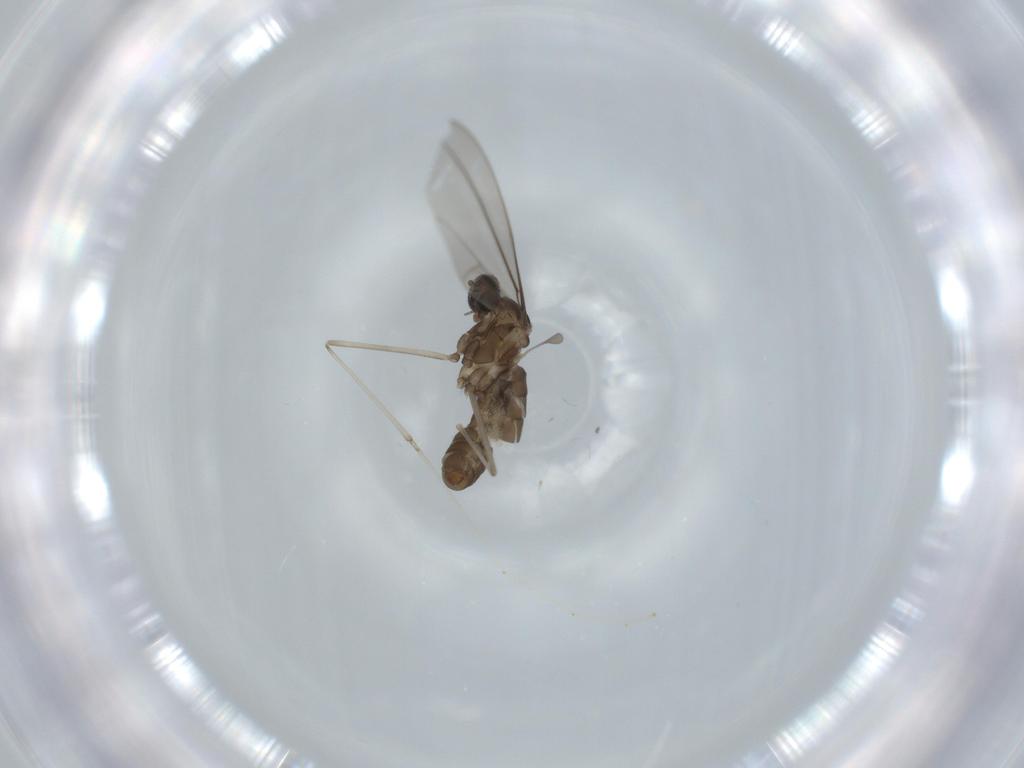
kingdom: Animalia
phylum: Arthropoda
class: Insecta
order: Diptera
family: Ceratopogonidae
